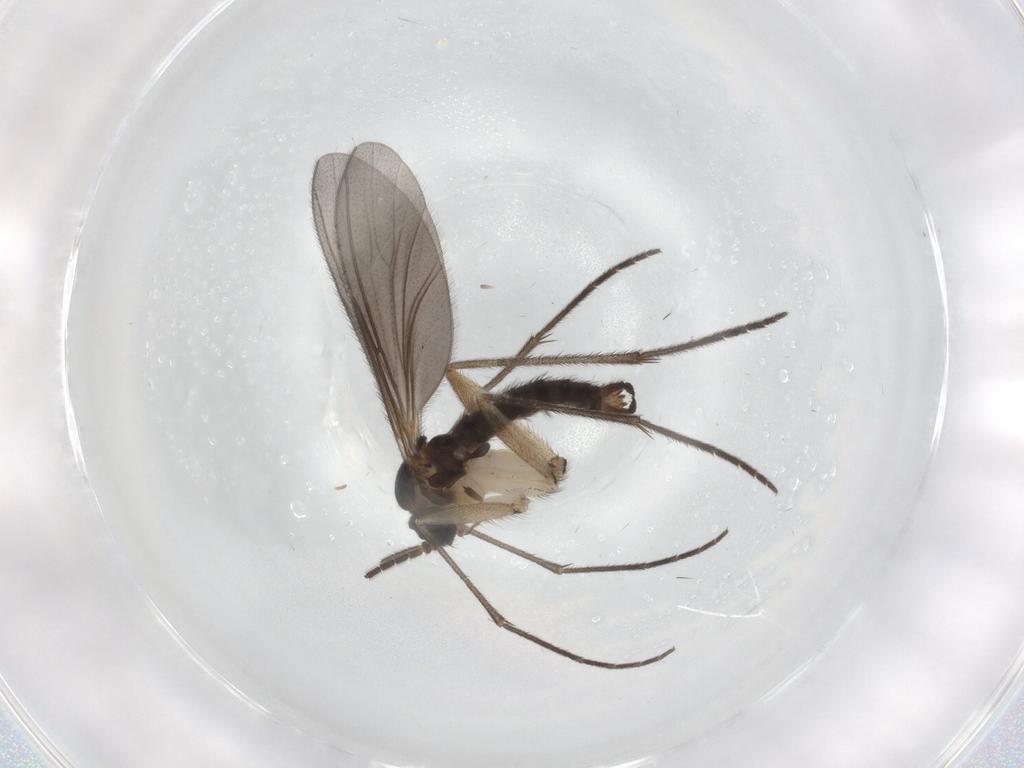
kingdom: Animalia
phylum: Arthropoda
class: Insecta
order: Diptera
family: Sciaridae
